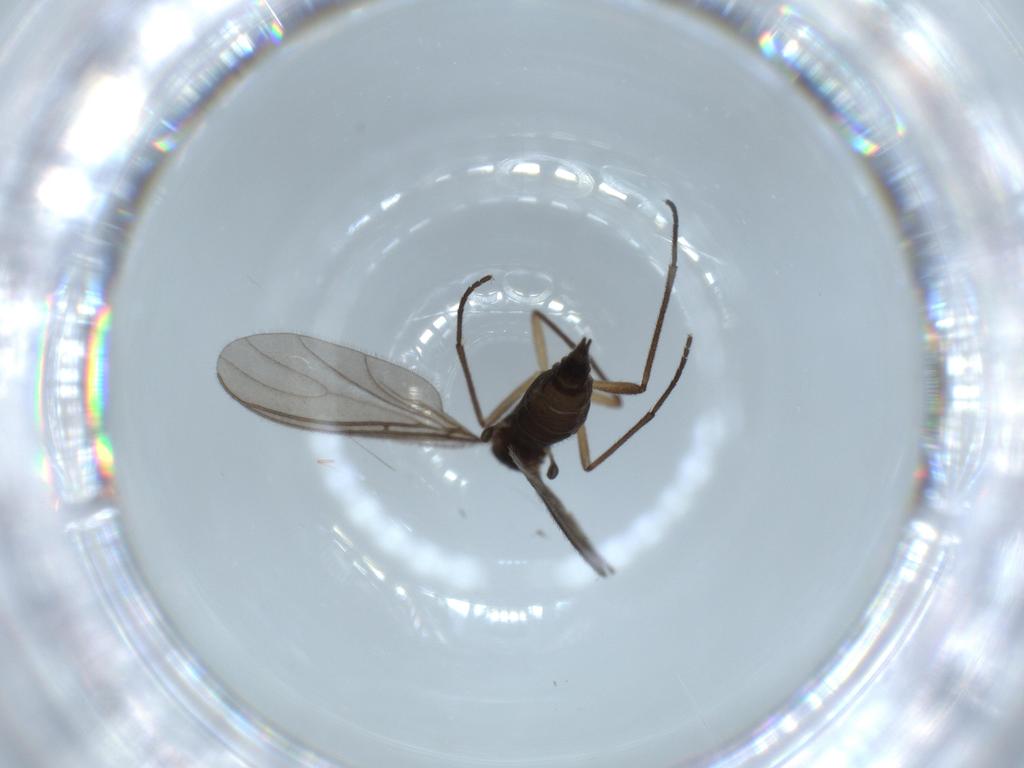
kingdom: Animalia
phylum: Arthropoda
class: Insecta
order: Diptera
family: Sciaridae
